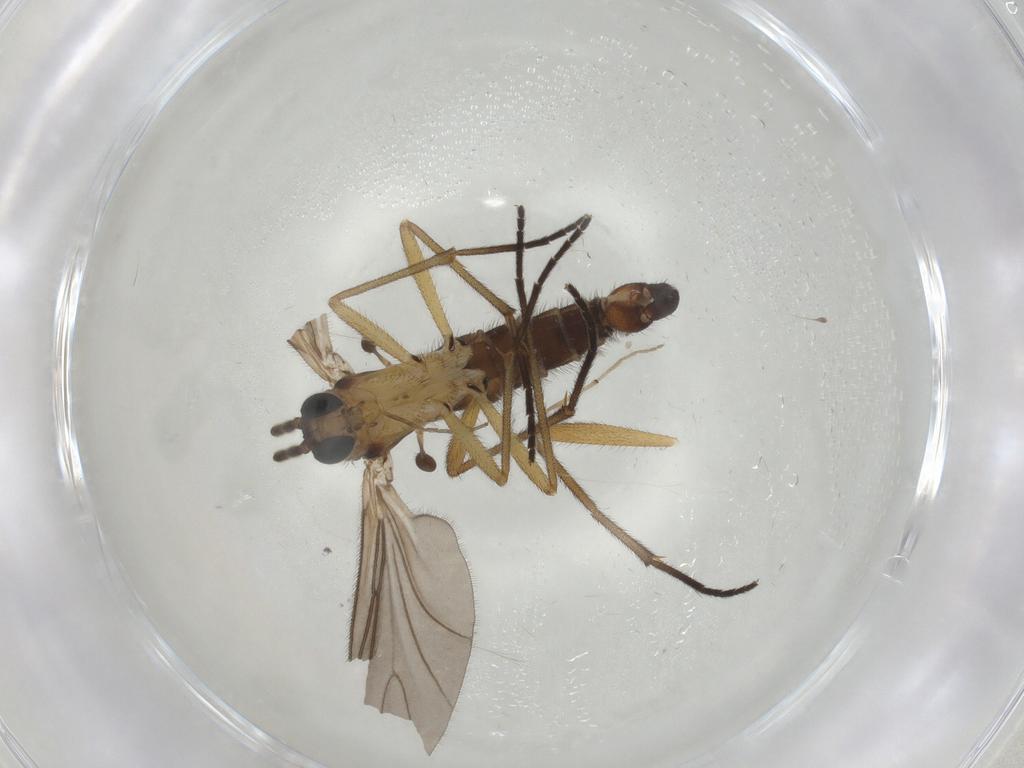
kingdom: Animalia
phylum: Arthropoda
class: Insecta
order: Diptera
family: Sciaridae
